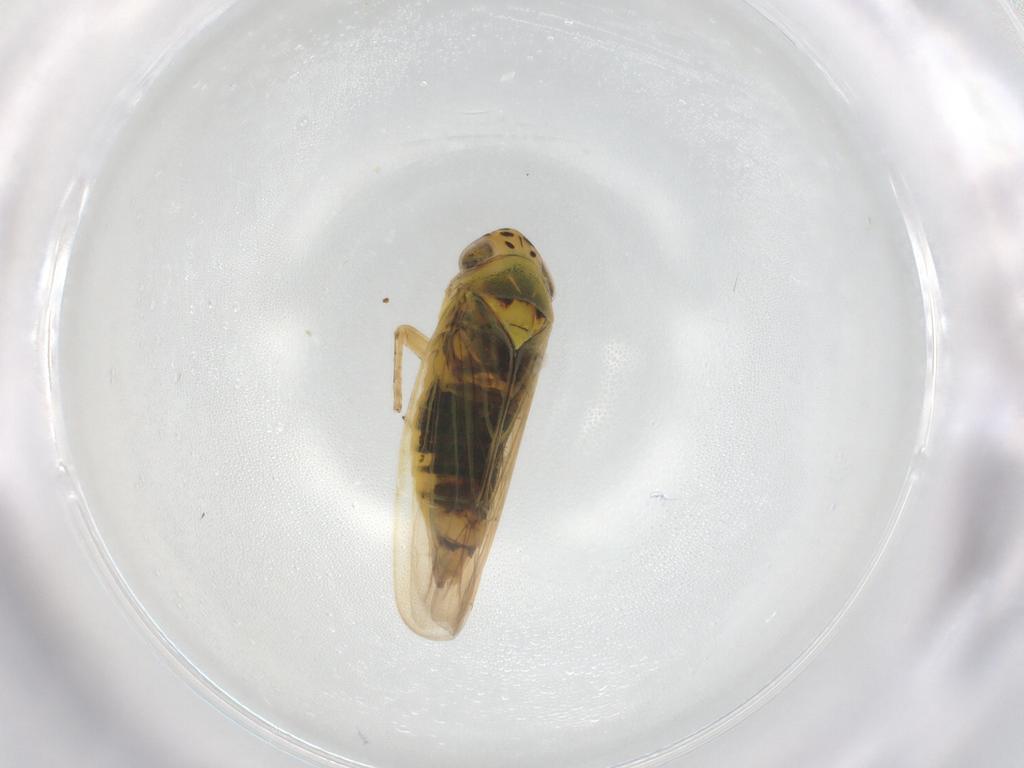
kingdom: Animalia
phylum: Arthropoda
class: Insecta
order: Hemiptera
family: Cicadellidae
